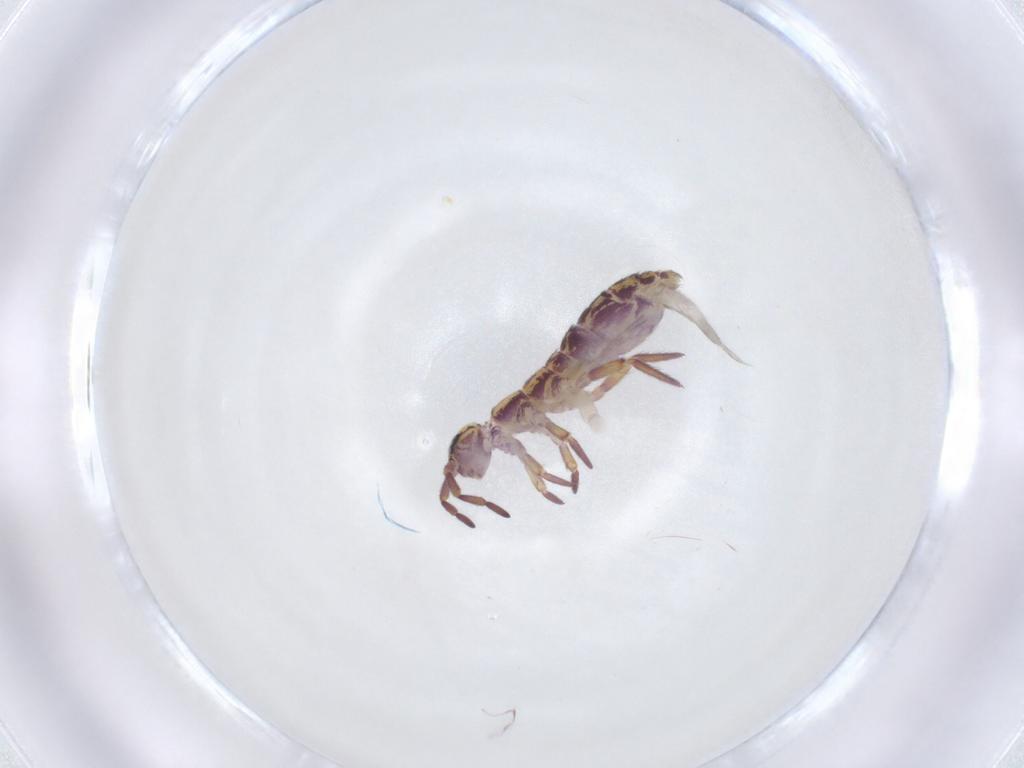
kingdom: Animalia
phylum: Arthropoda
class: Collembola
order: Entomobryomorpha
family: Isotomidae
